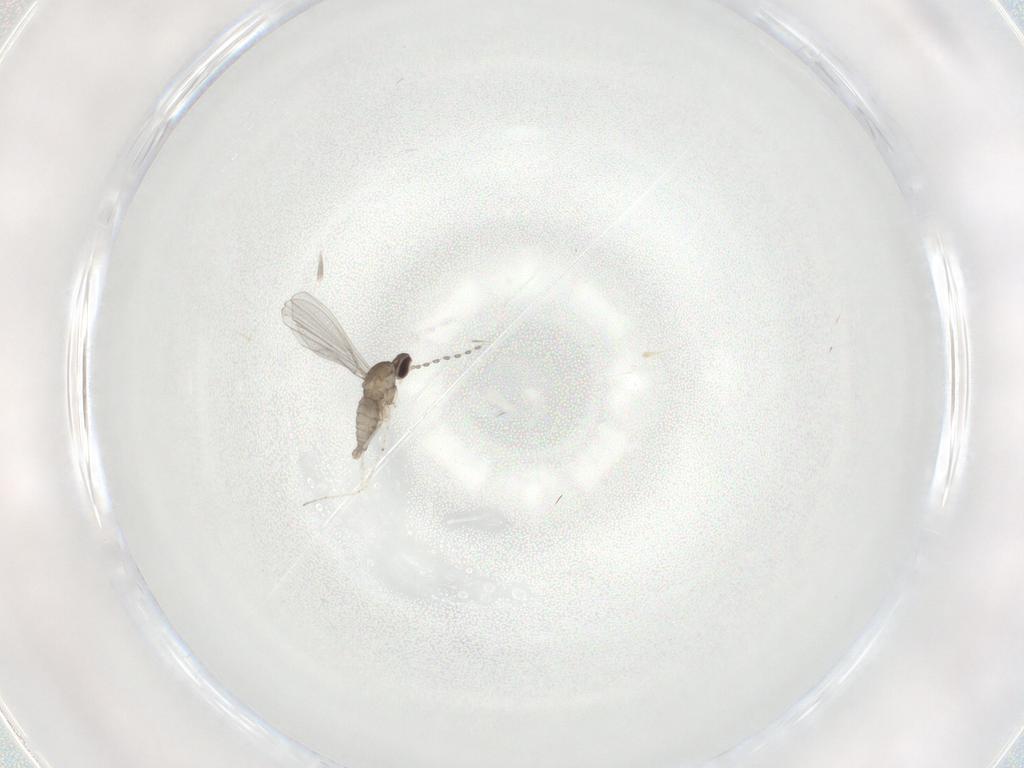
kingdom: Animalia
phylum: Arthropoda
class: Insecta
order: Diptera
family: Cecidomyiidae
